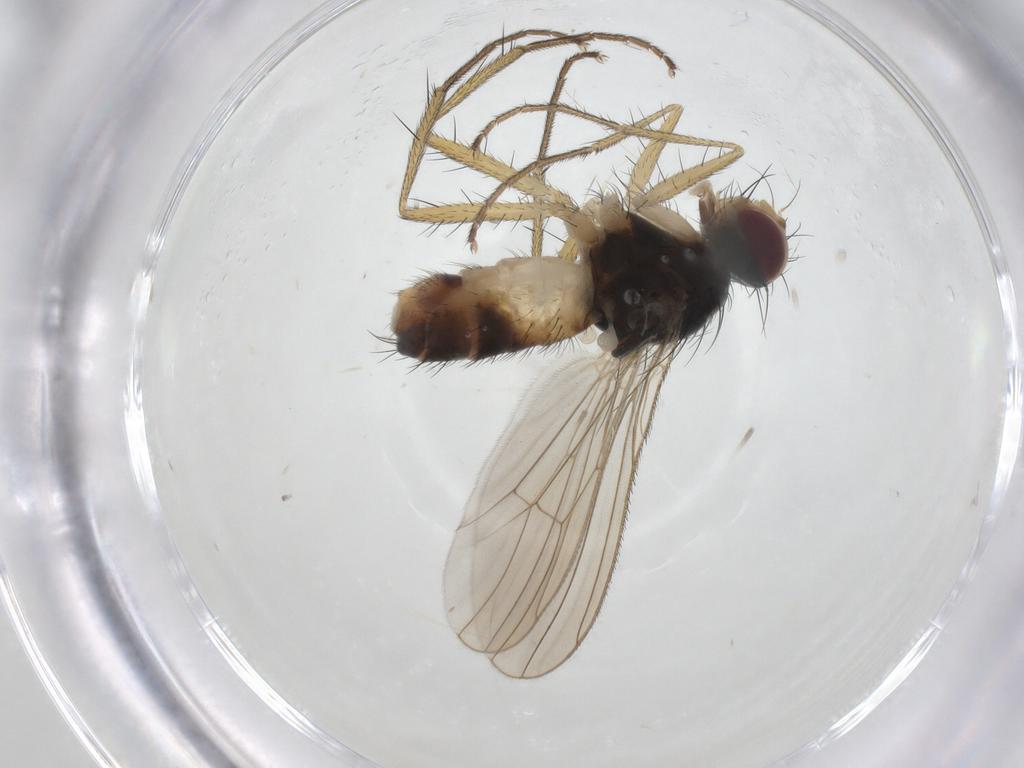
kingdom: Animalia
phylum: Arthropoda
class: Insecta
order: Diptera
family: Muscidae
